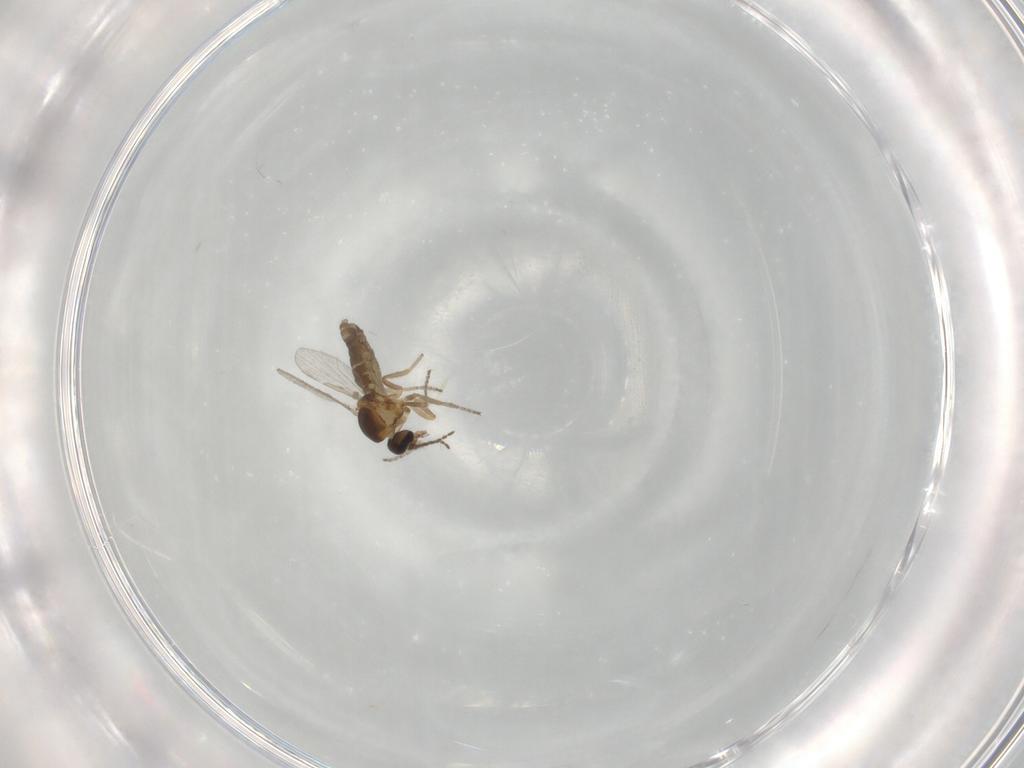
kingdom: Animalia
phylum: Arthropoda
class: Insecta
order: Diptera
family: Ceratopogonidae
